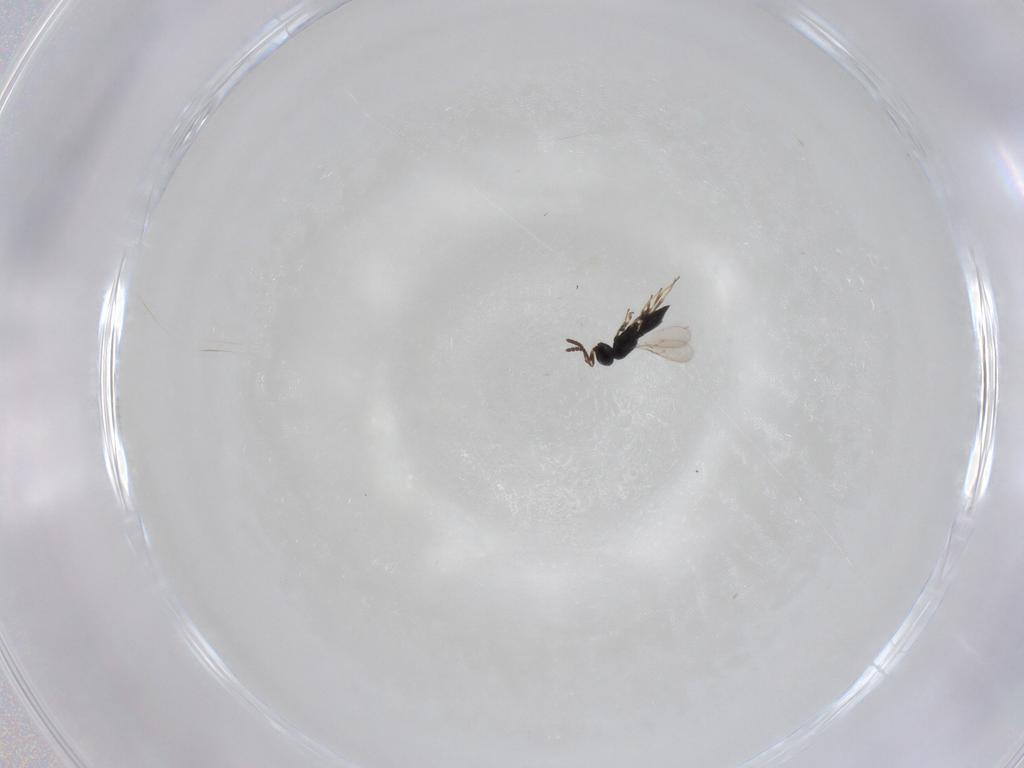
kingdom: Animalia
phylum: Arthropoda
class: Insecta
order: Hymenoptera
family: Scelionidae
